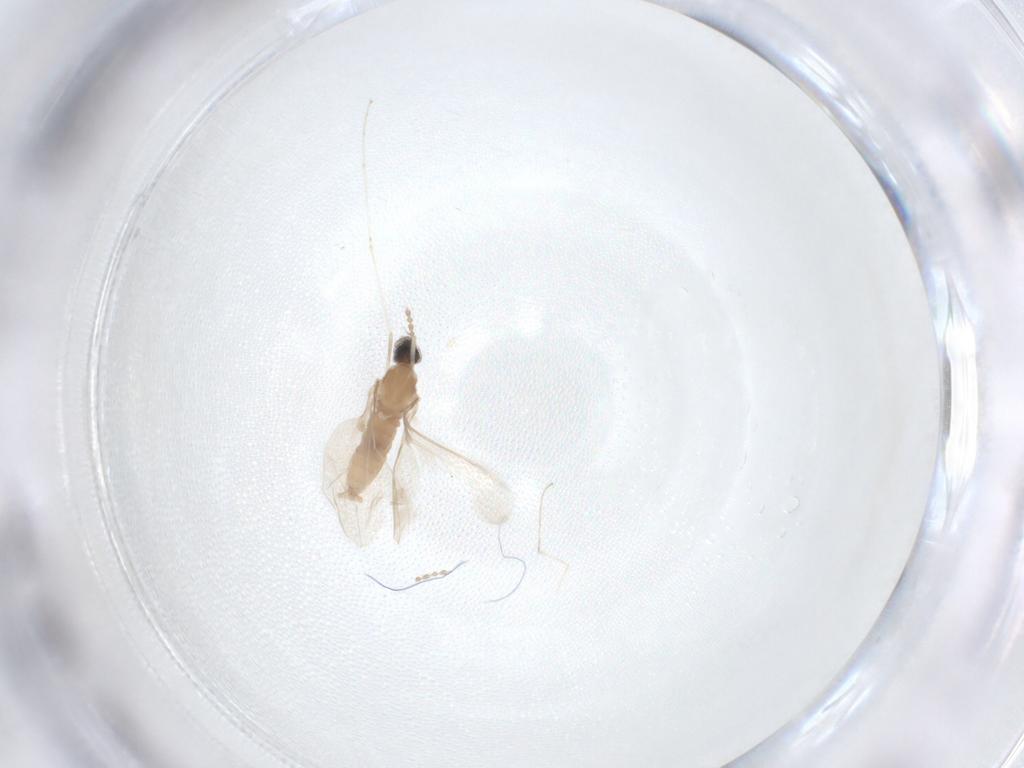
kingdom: Animalia
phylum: Arthropoda
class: Insecta
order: Diptera
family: Cecidomyiidae
